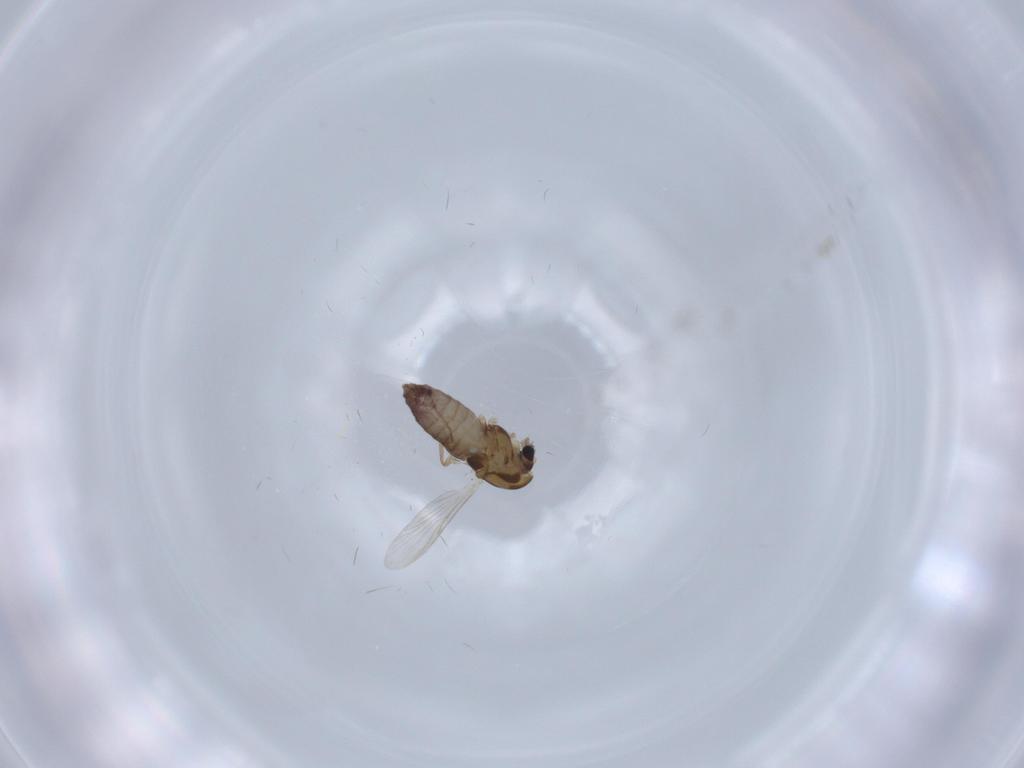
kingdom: Animalia
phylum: Arthropoda
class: Insecta
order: Diptera
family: Chironomidae
